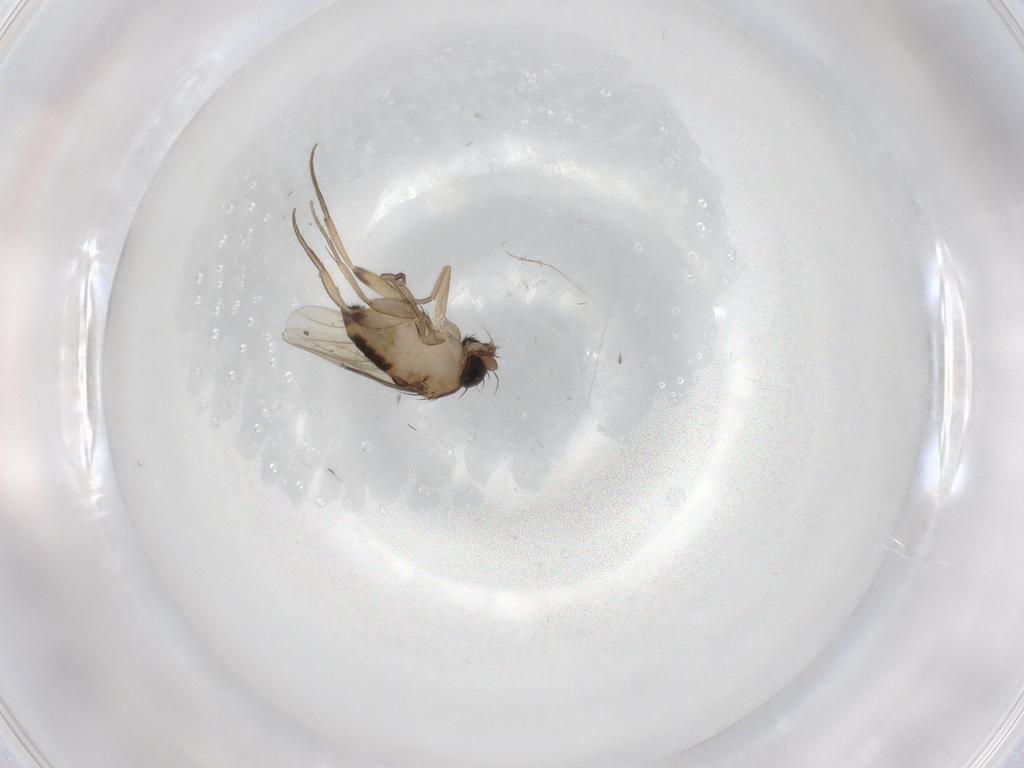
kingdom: Animalia
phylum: Arthropoda
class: Insecta
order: Diptera
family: Phoridae
